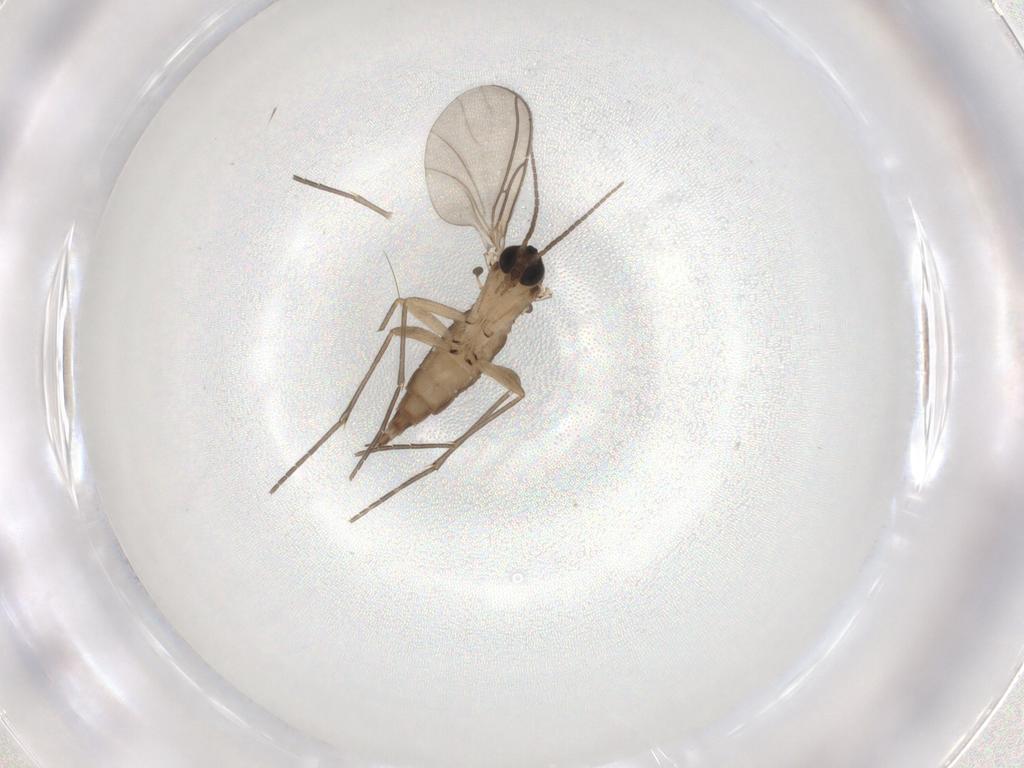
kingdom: Animalia
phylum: Arthropoda
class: Insecta
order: Diptera
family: Sciaridae
